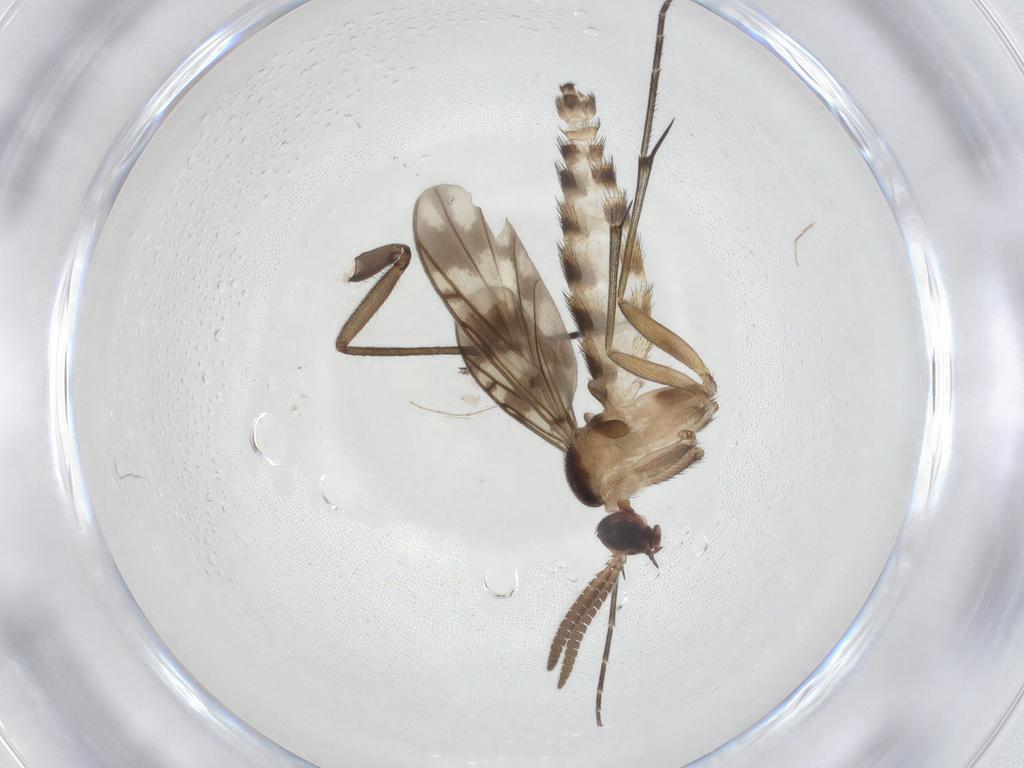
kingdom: Animalia
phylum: Arthropoda
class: Insecta
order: Diptera
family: Keroplatidae
